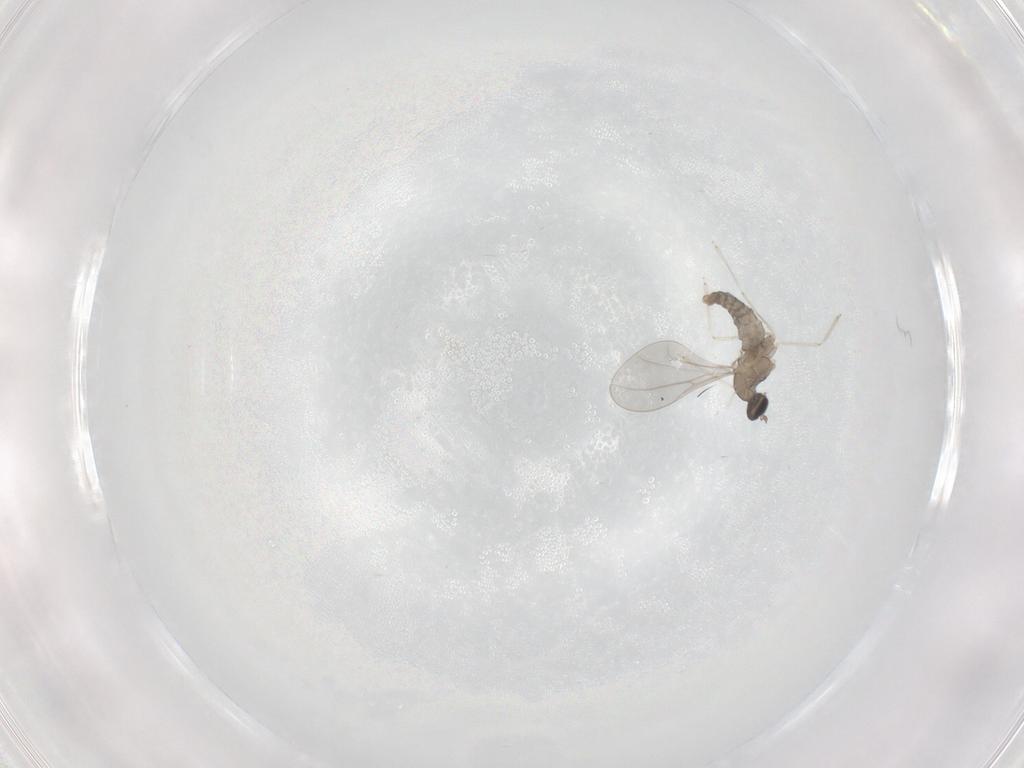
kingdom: Animalia
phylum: Arthropoda
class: Insecta
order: Diptera
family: Cecidomyiidae
